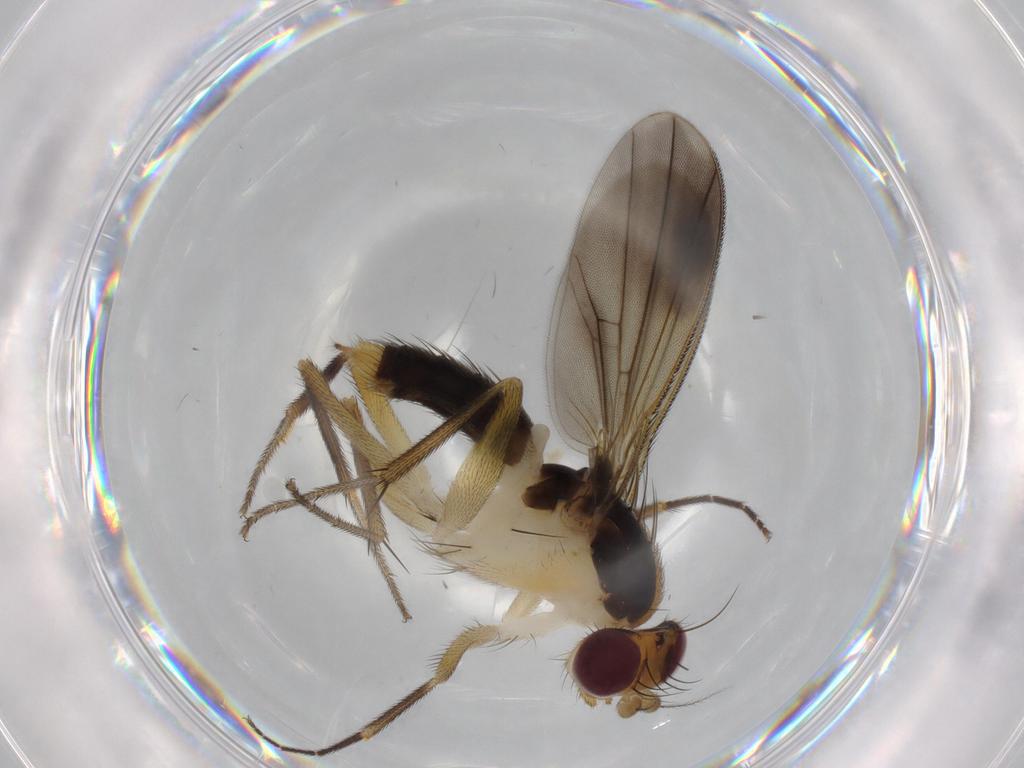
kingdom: Animalia
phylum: Arthropoda
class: Insecta
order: Diptera
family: Clusiidae
